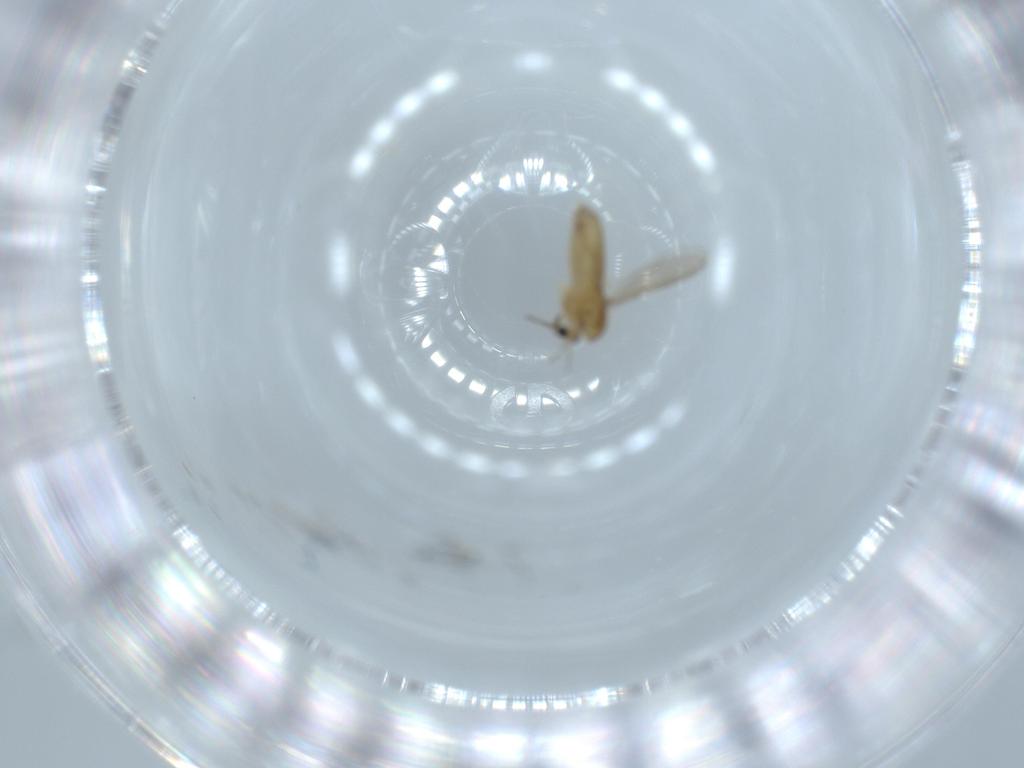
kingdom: Animalia
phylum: Arthropoda
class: Insecta
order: Diptera
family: Chironomidae
